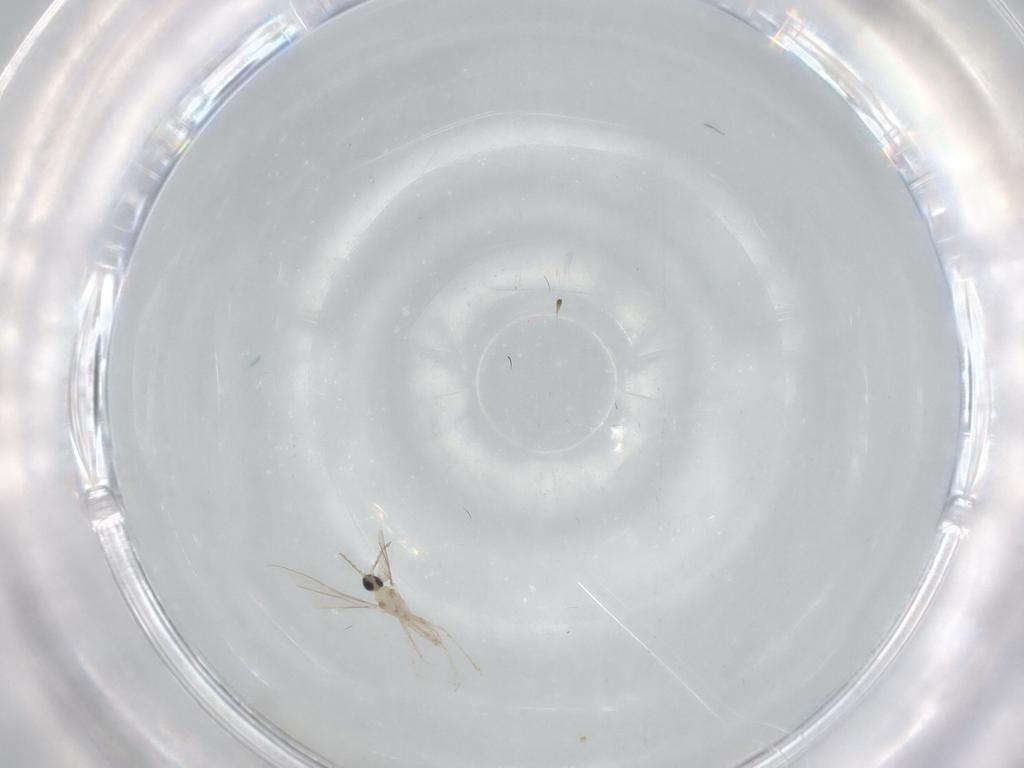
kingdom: Animalia
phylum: Arthropoda
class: Insecta
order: Diptera
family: Cecidomyiidae
